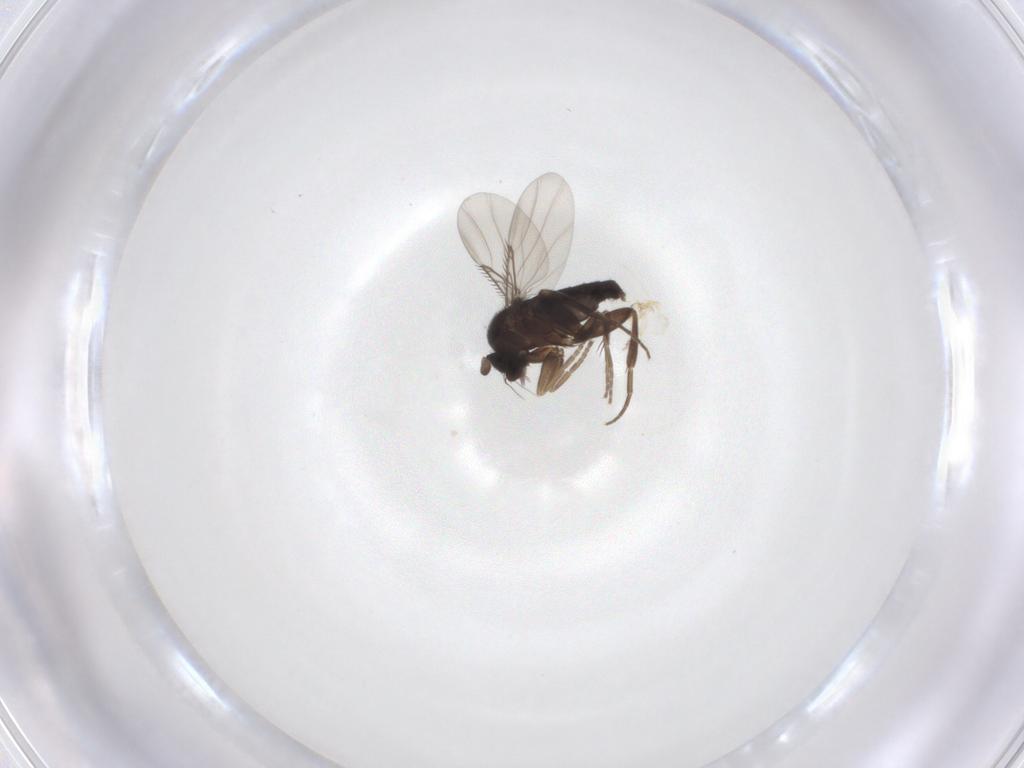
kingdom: Animalia
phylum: Arthropoda
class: Insecta
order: Diptera
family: Phoridae
